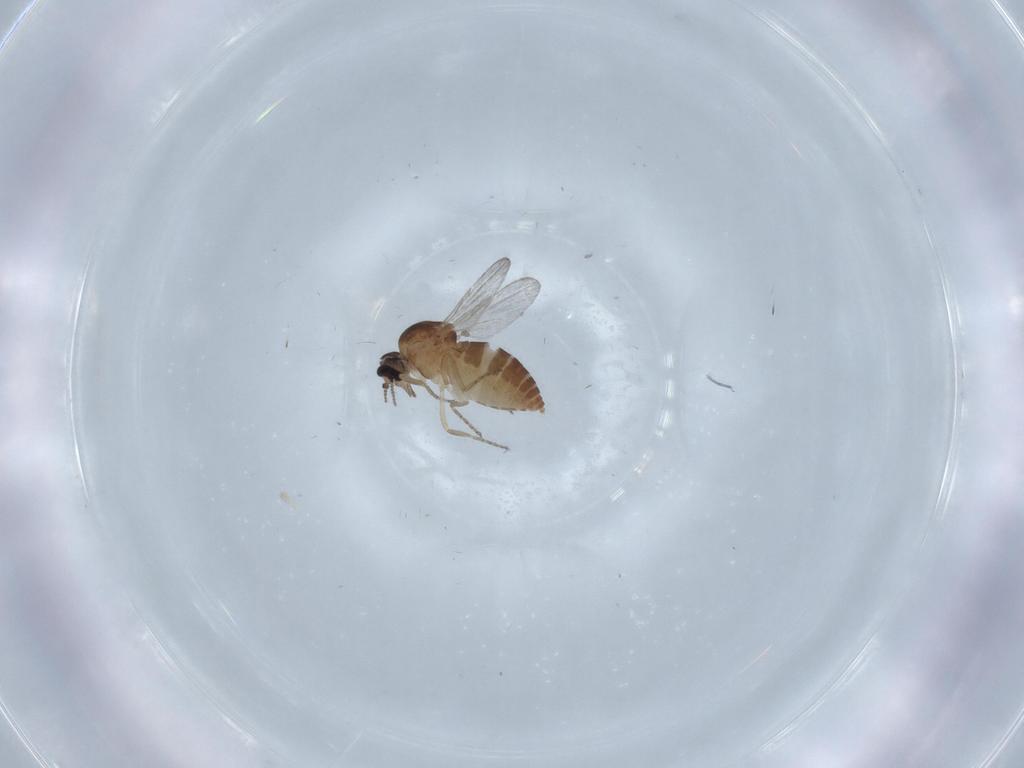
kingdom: Animalia
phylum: Arthropoda
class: Insecta
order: Diptera
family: Ceratopogonidae
